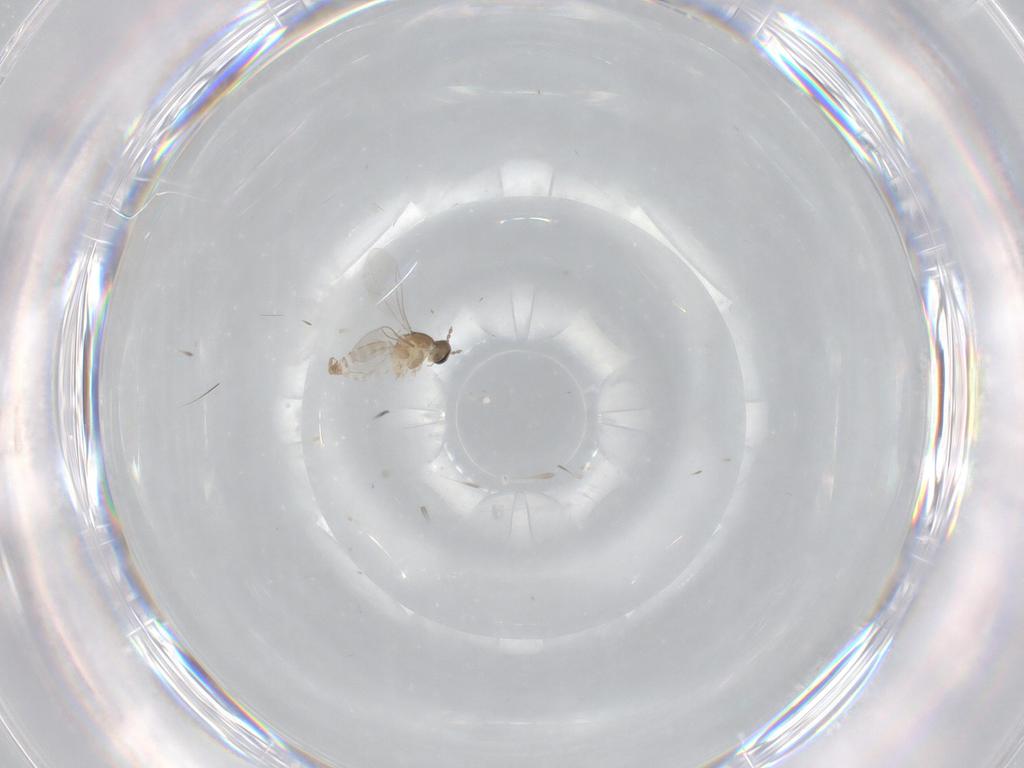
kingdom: Animalia
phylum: Arthropoda
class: Insecta
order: Diptera
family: Cecidomyiidae
